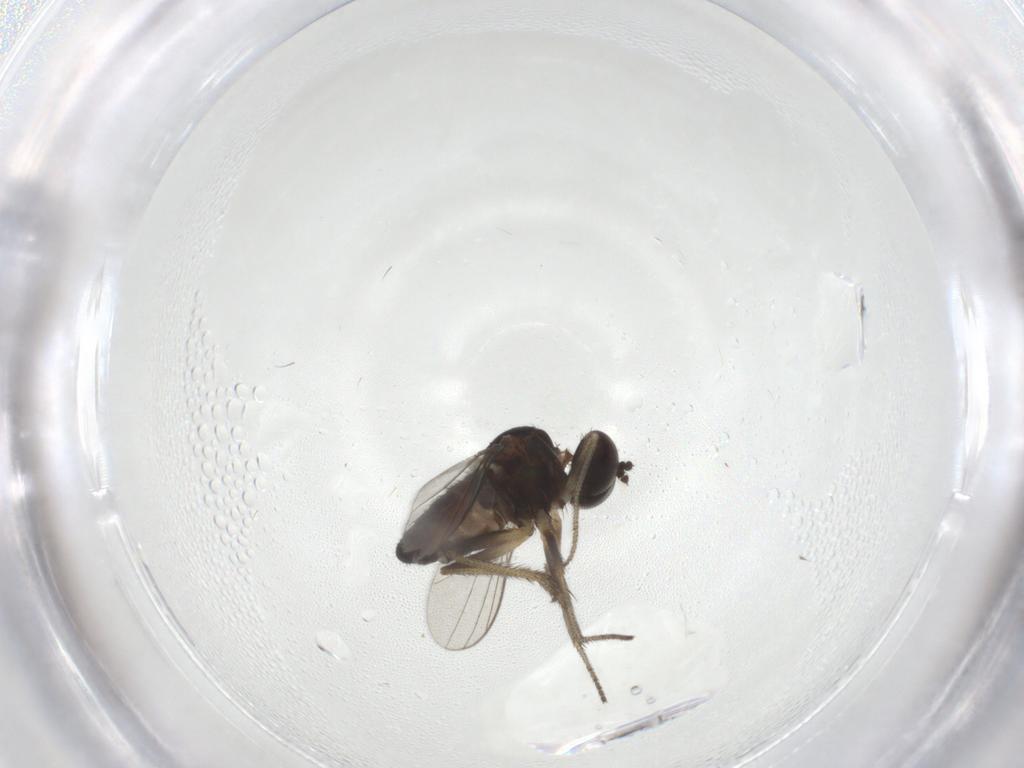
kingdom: Animalia
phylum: Arthropoda
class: Insecta
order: Diptera
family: Dolichopodidae
